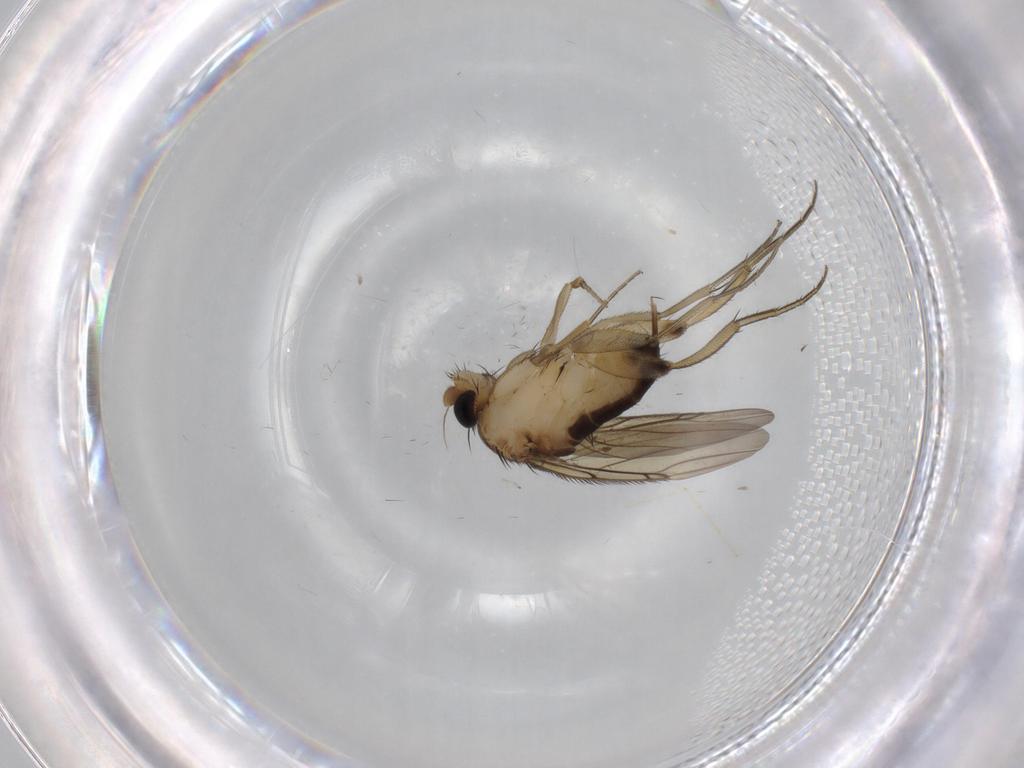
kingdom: Animalia
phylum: Arthropoda
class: Insecta
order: Diptera
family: Phoridae
